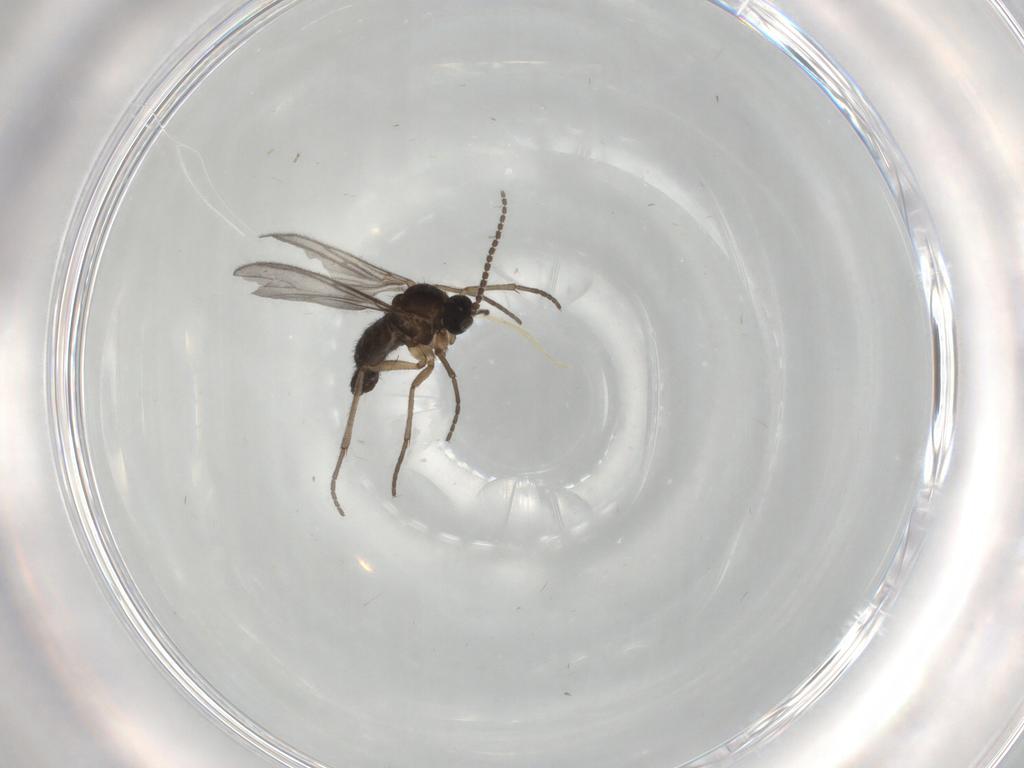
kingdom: Animalia
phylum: Arthropoda
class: Insecta
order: Diptera
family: Sciaridae
